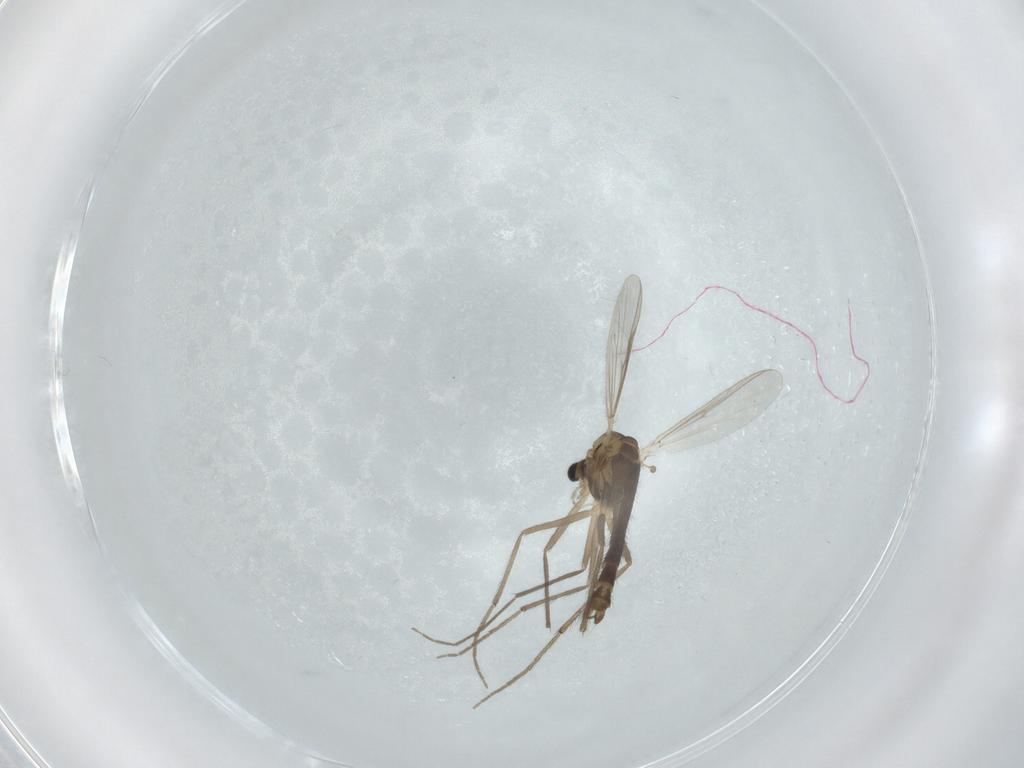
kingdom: Animalia
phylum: Arthropoda
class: Insecta
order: Diptera
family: Chironomidae
